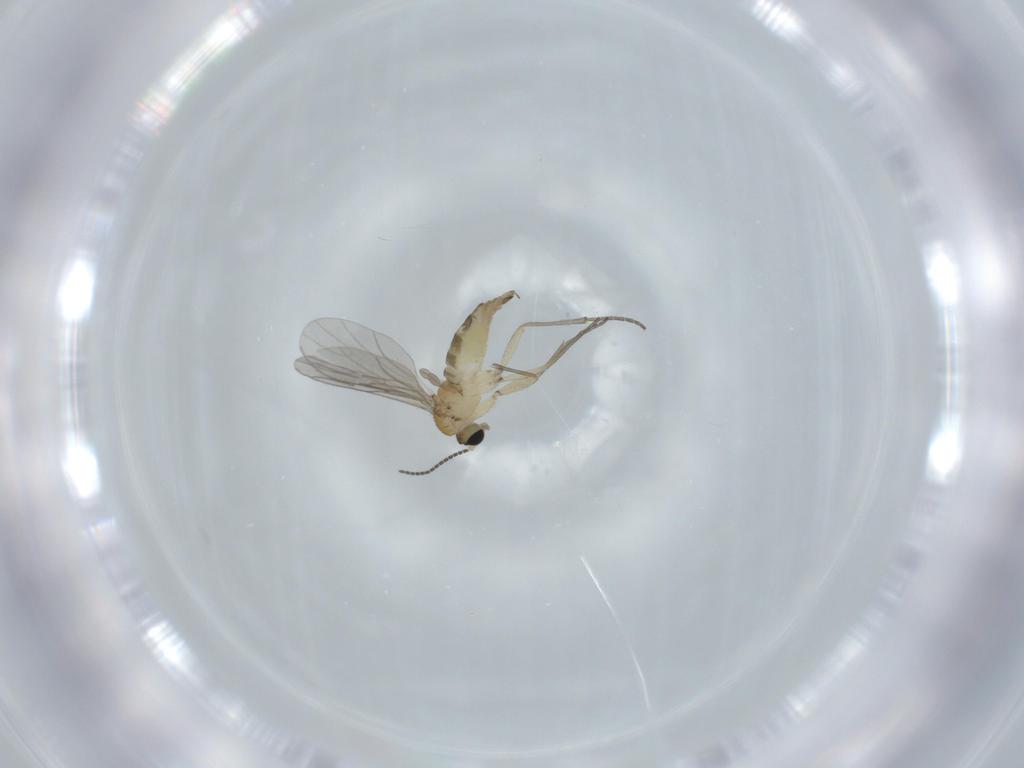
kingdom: Animalia
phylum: Arthropoda
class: Insecta
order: Diptera
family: Sciaridae
